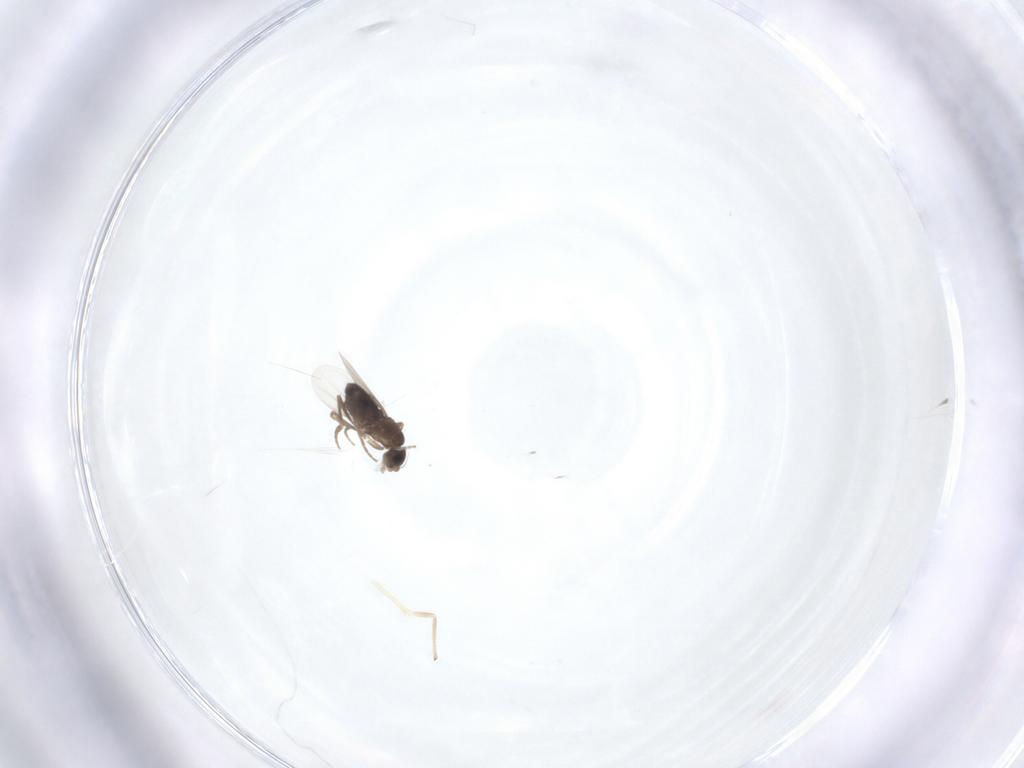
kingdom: Animalia
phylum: Arthropoda
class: Insecta
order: Diptera
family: Phoridae
